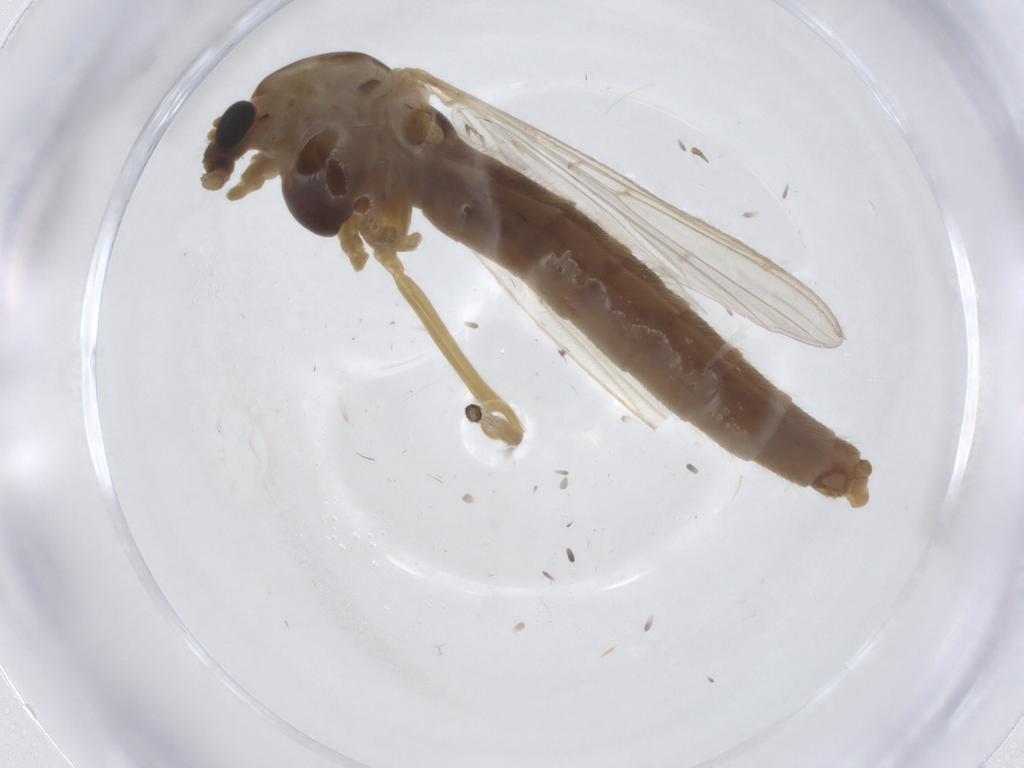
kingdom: Animalia
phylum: Arthropoda
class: Insecta
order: Diptera
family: Chironomidae
